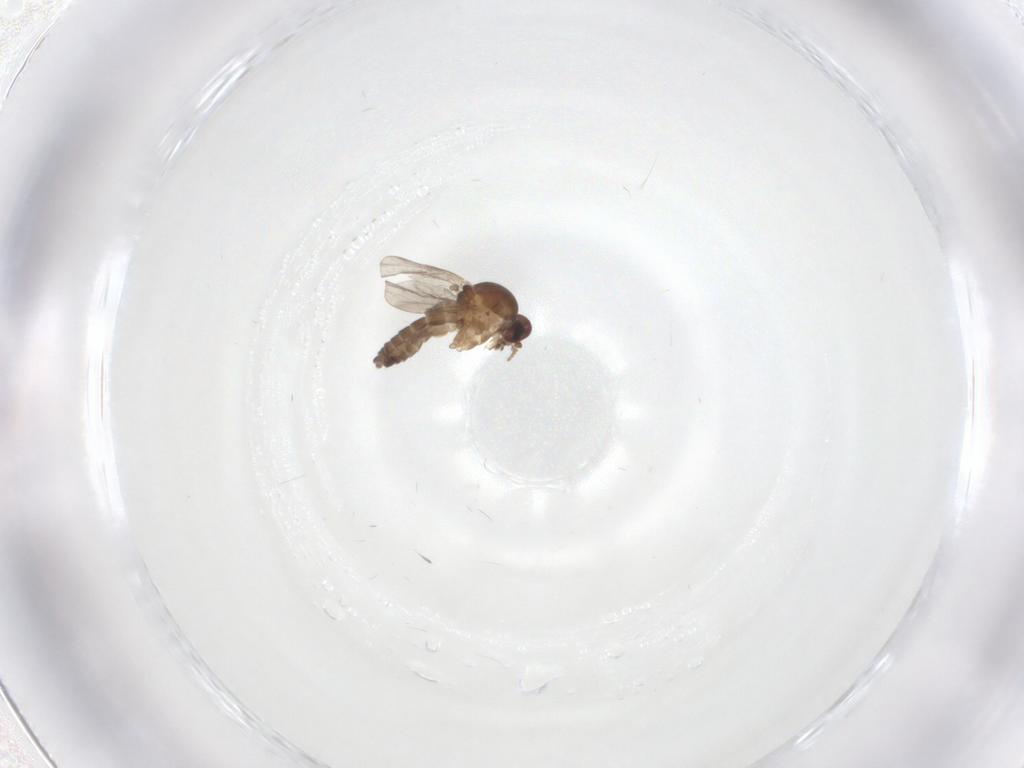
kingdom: Animalia
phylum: Arthropoda
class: Insecta
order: Diptera
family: Ceratopogonidae
